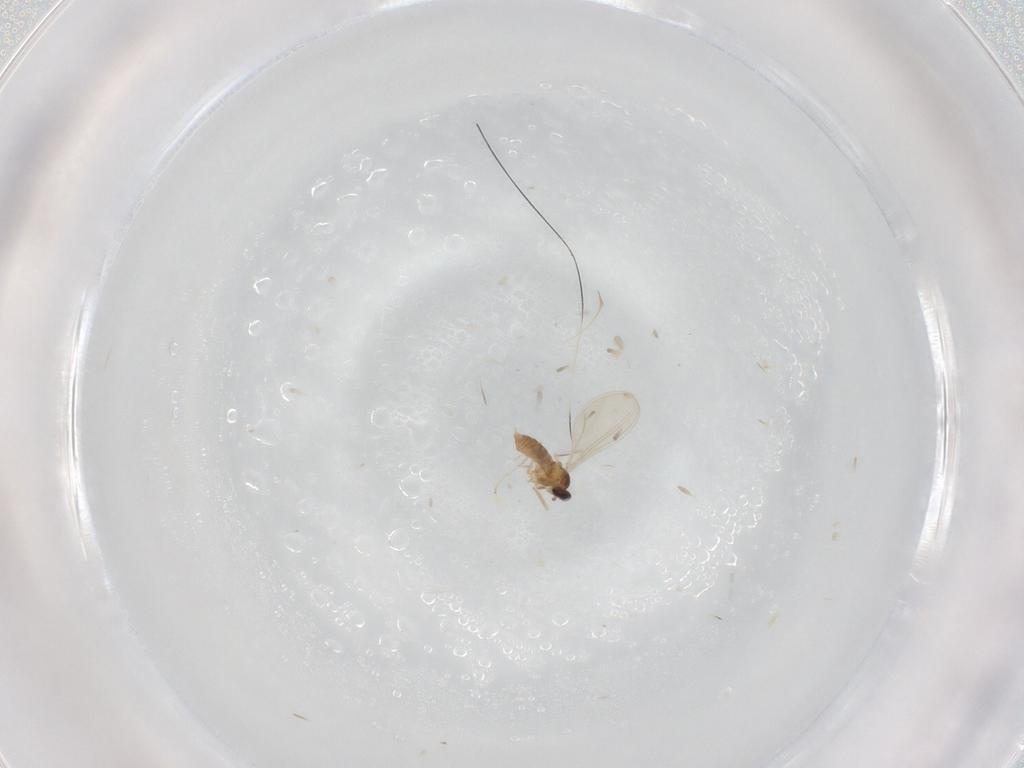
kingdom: Animalia
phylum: Arthropoda
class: Insecta
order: Diptera
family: Cecidomyiidae
